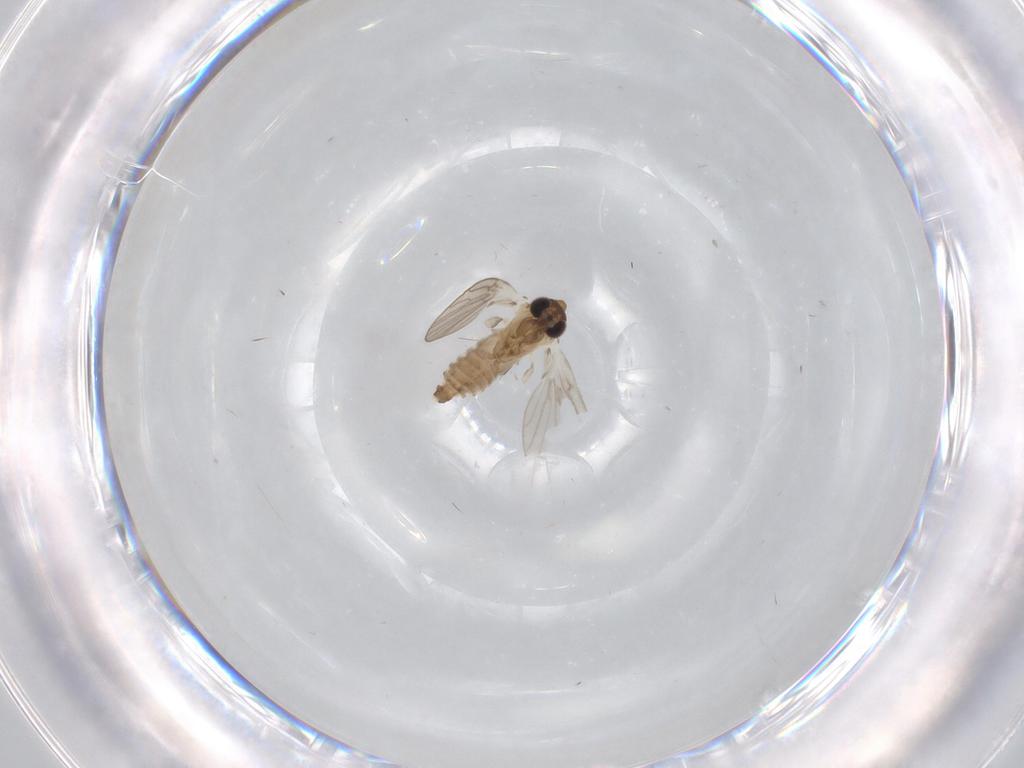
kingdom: Animalia
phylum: Arthropoda
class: Insecta
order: Diptera
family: Psychodidae
